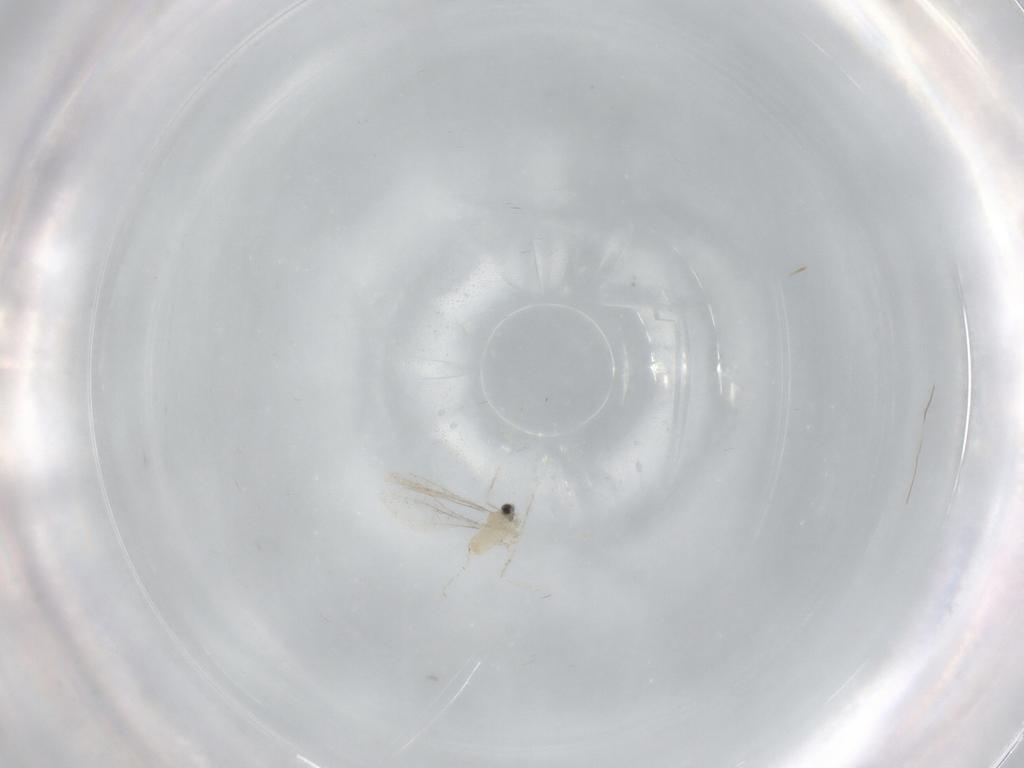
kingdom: Animalia
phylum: Arthropoda
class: Insecta
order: Diptera
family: Cecidomyiidae
